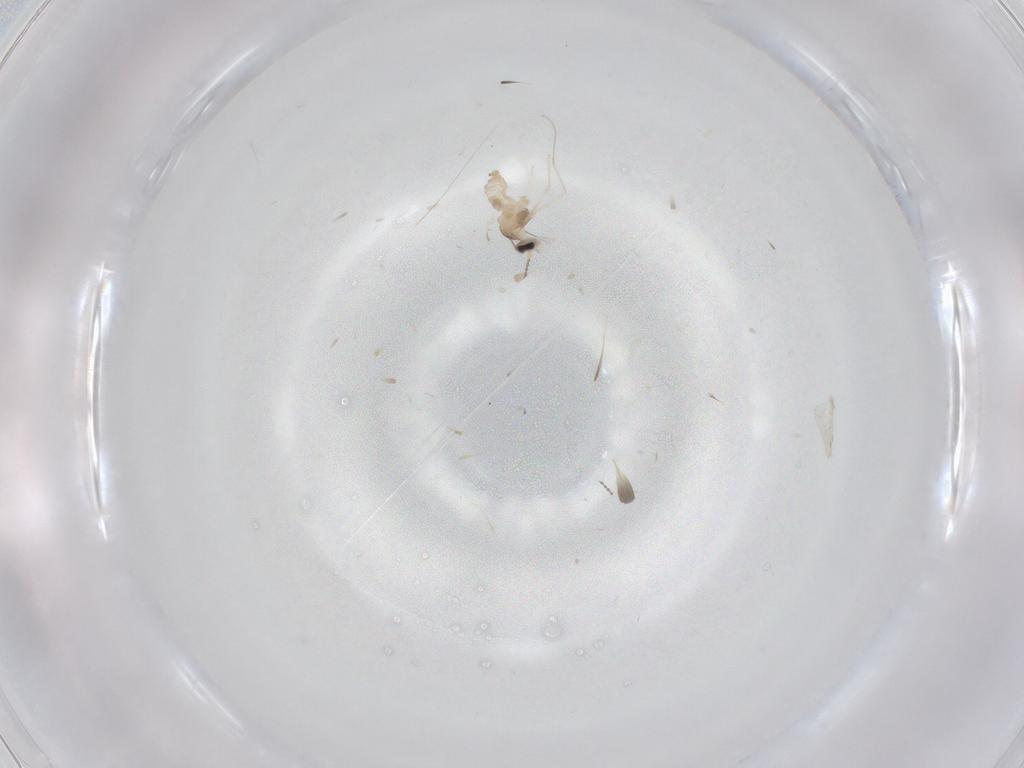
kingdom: Animalia
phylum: Arthropoda
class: Insecta
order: Diptera
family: Cecidomyiidae
